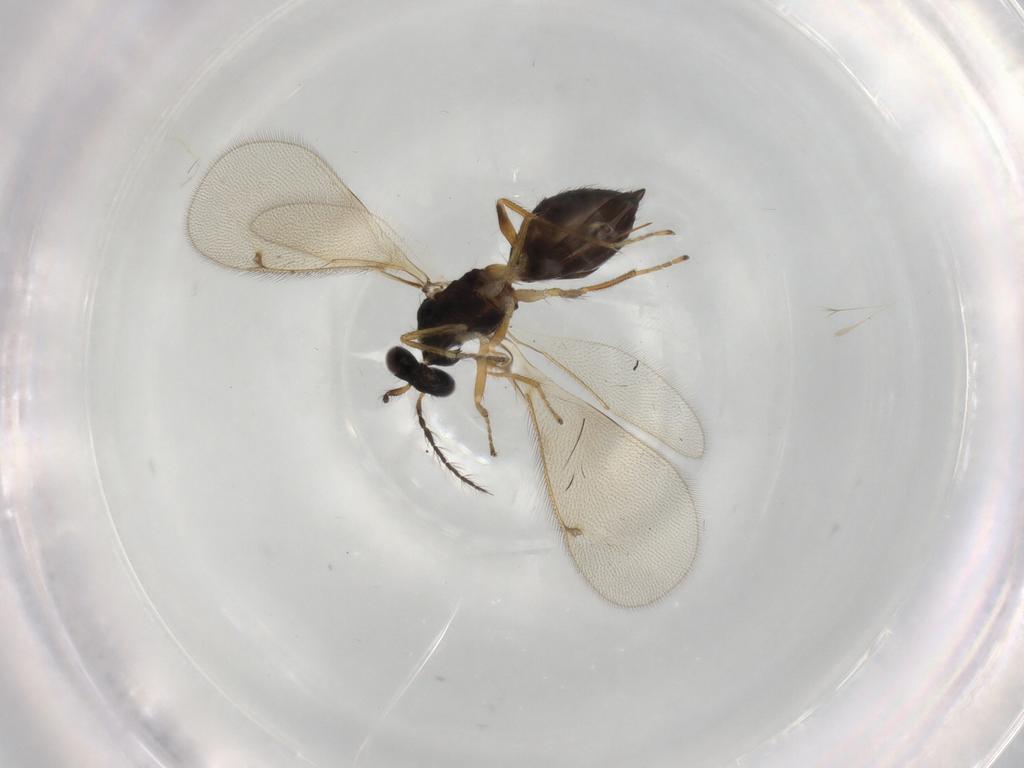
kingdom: Animalia
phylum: Arthropoda
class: Insecta
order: Hymenoptera
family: Eulophidae
